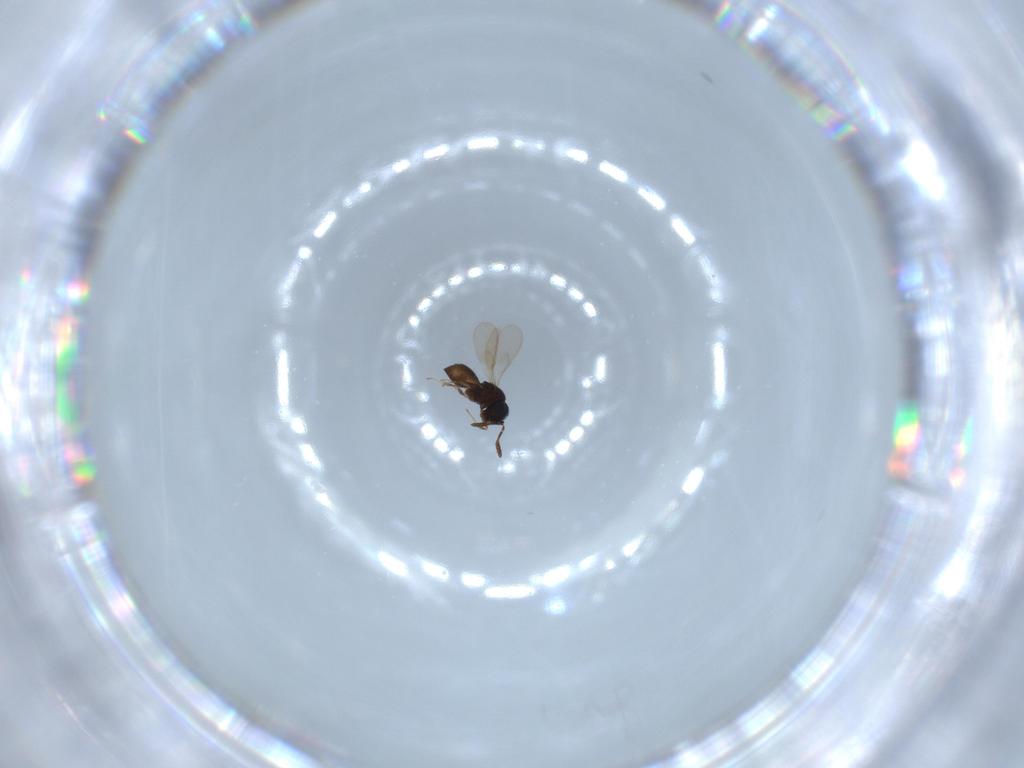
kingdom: Animalia
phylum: Arthropoda
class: Insecta
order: Hymenoptera
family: Scelionidae
